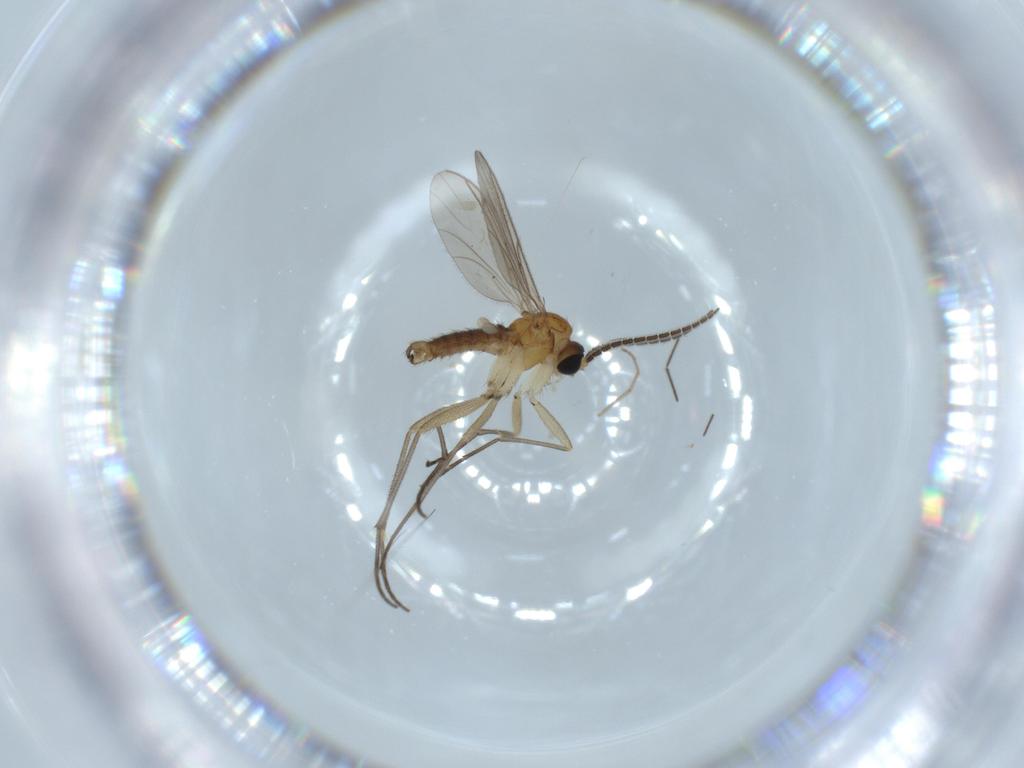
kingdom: Animalia
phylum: Arthropoda
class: Insecta
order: Diptera
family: Sciaridae
